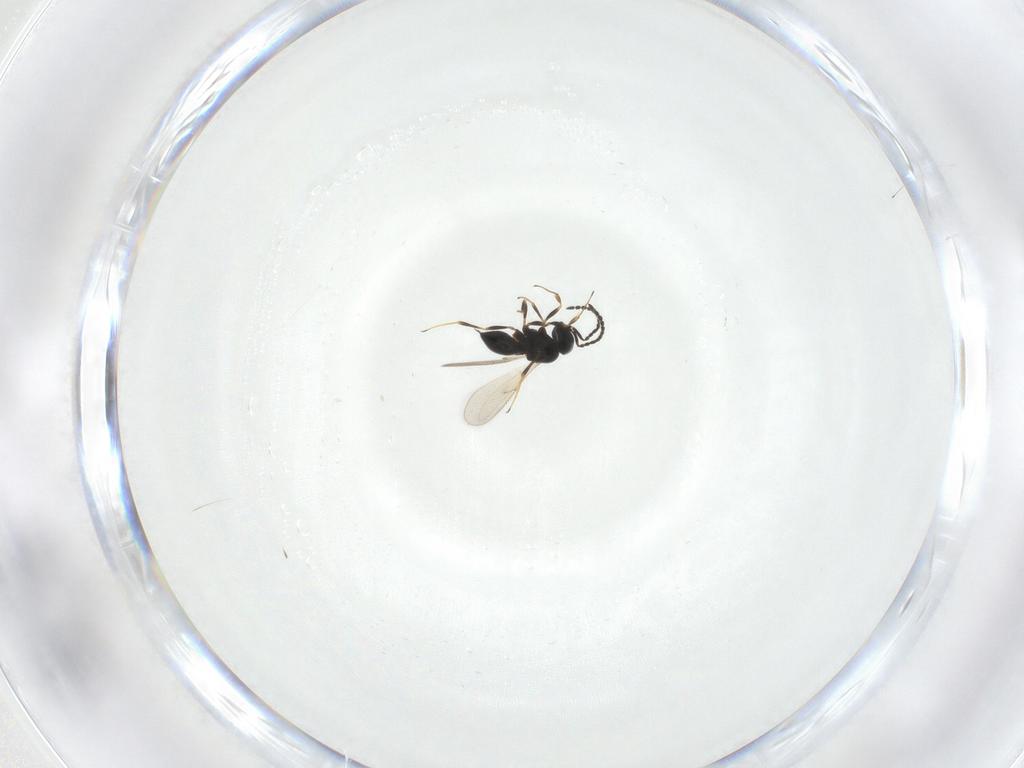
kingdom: Animalia
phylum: Arthropoda
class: Insecta
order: Hymenoptera
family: Scelionidae
